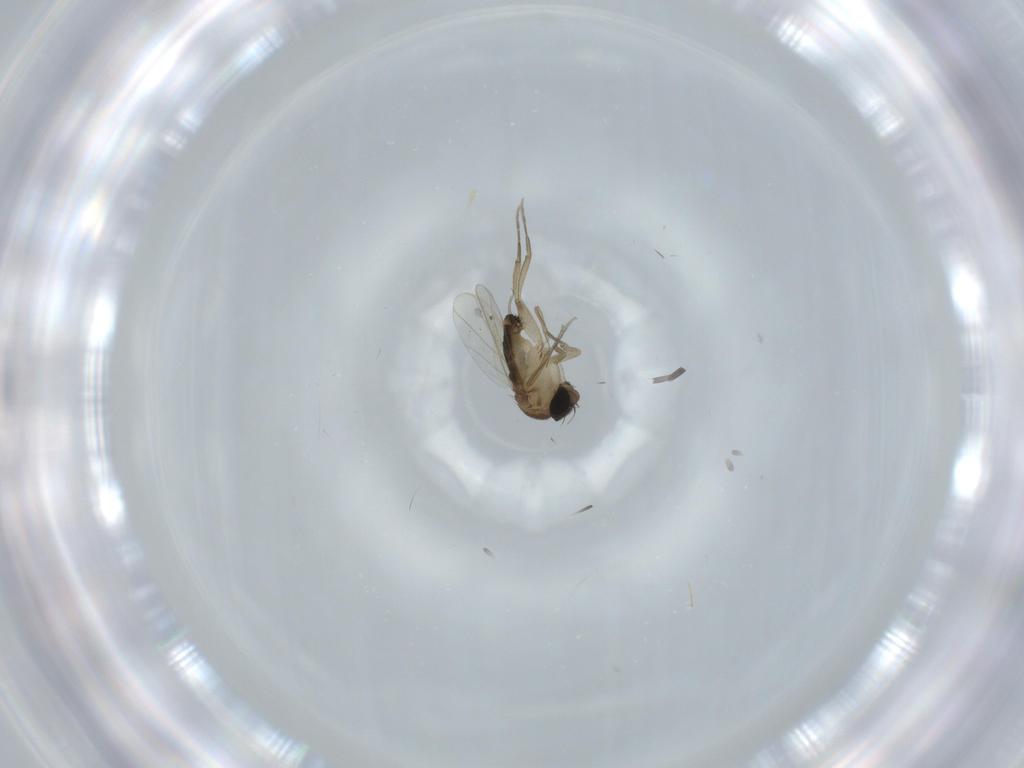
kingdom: Animalia
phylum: Arthropoda
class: Insecta
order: Diptera
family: Phoridae
